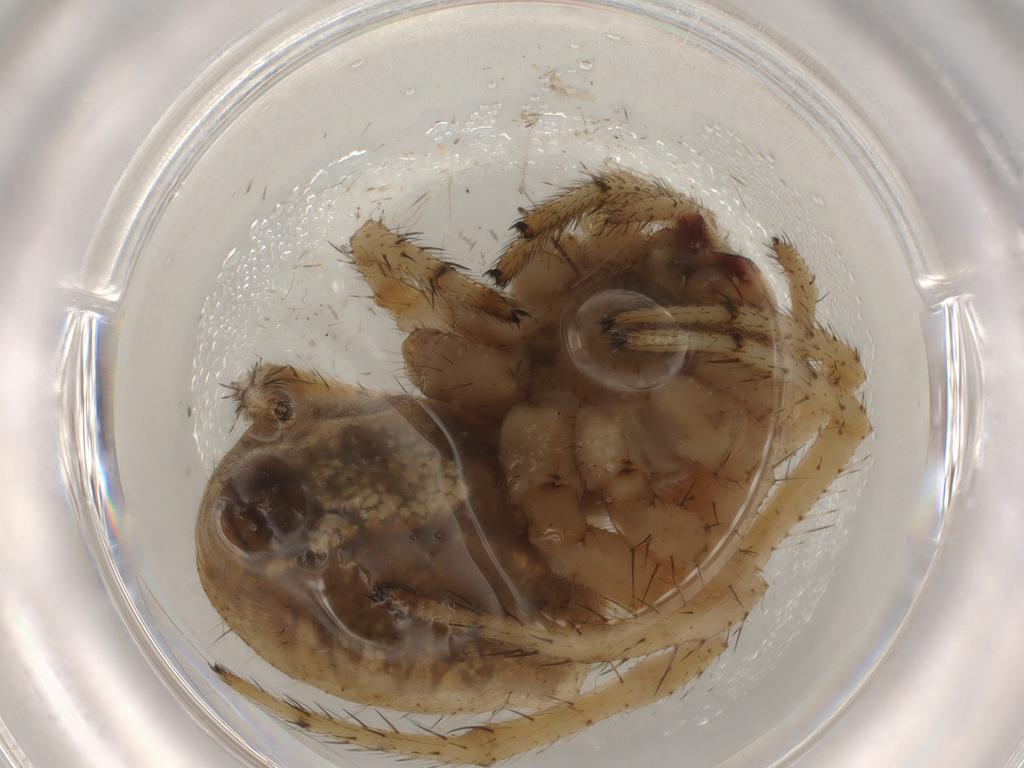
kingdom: Animalia
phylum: Arthropoda
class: Arachnida
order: Araneae
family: Lycosidae
